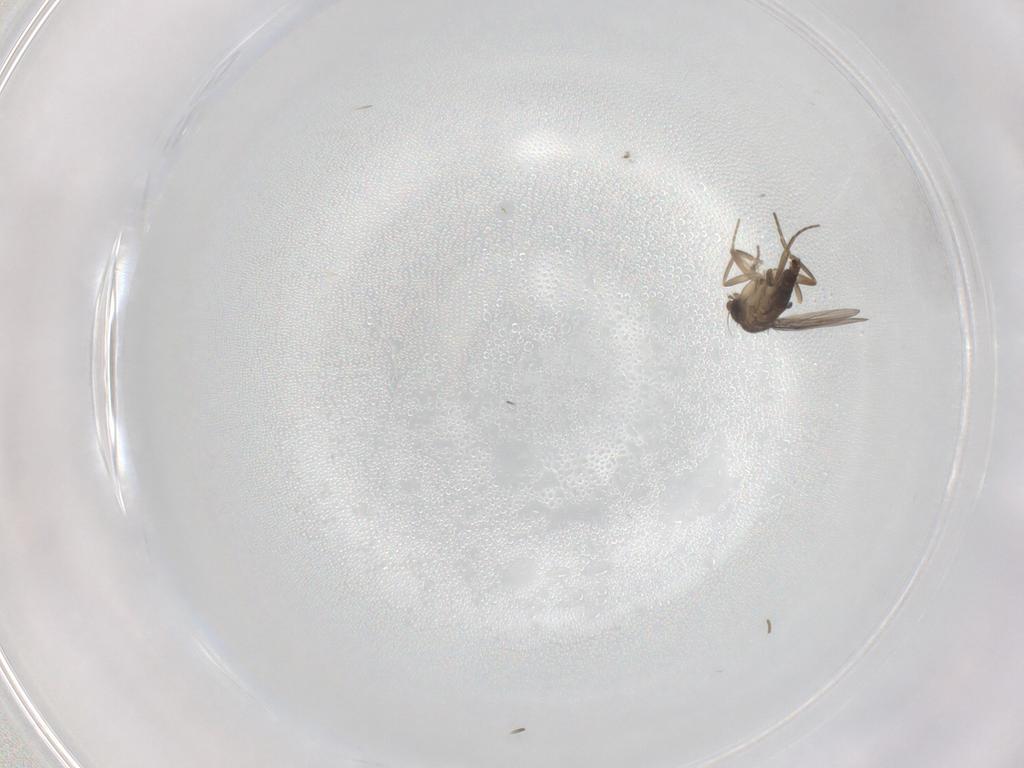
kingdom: Animalia
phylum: Arthropoda
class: Insecta
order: Diptera
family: Phoridae
